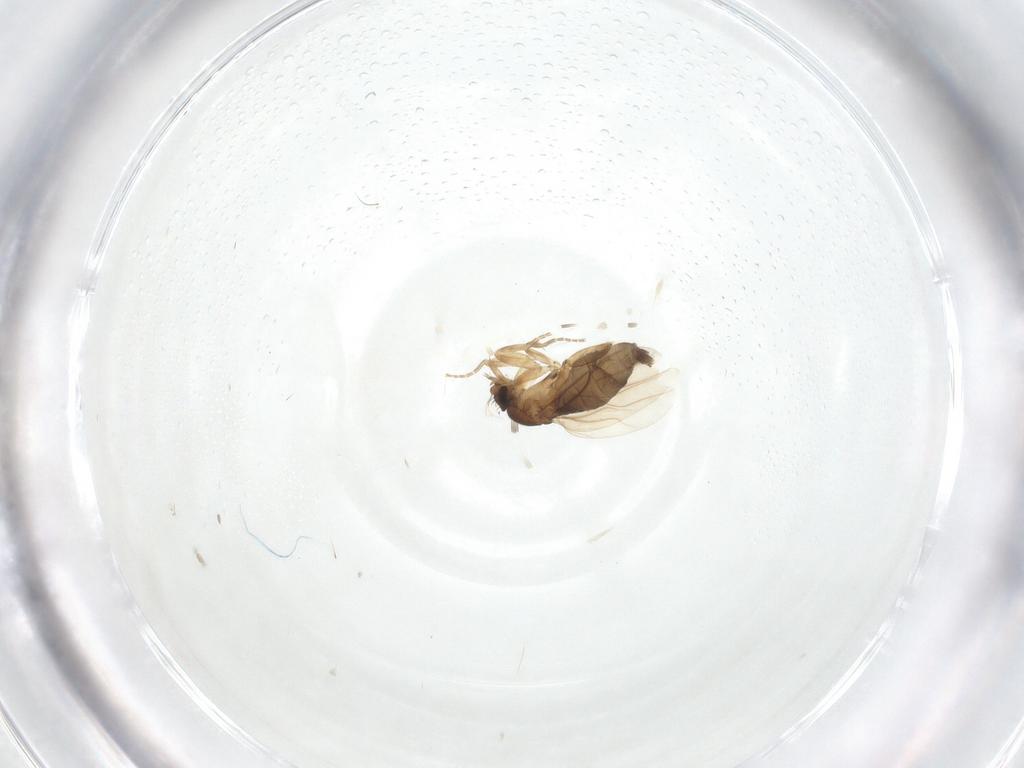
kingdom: Animalia
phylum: Arthropoda
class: Insecta
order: Diptera
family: Phoridae
